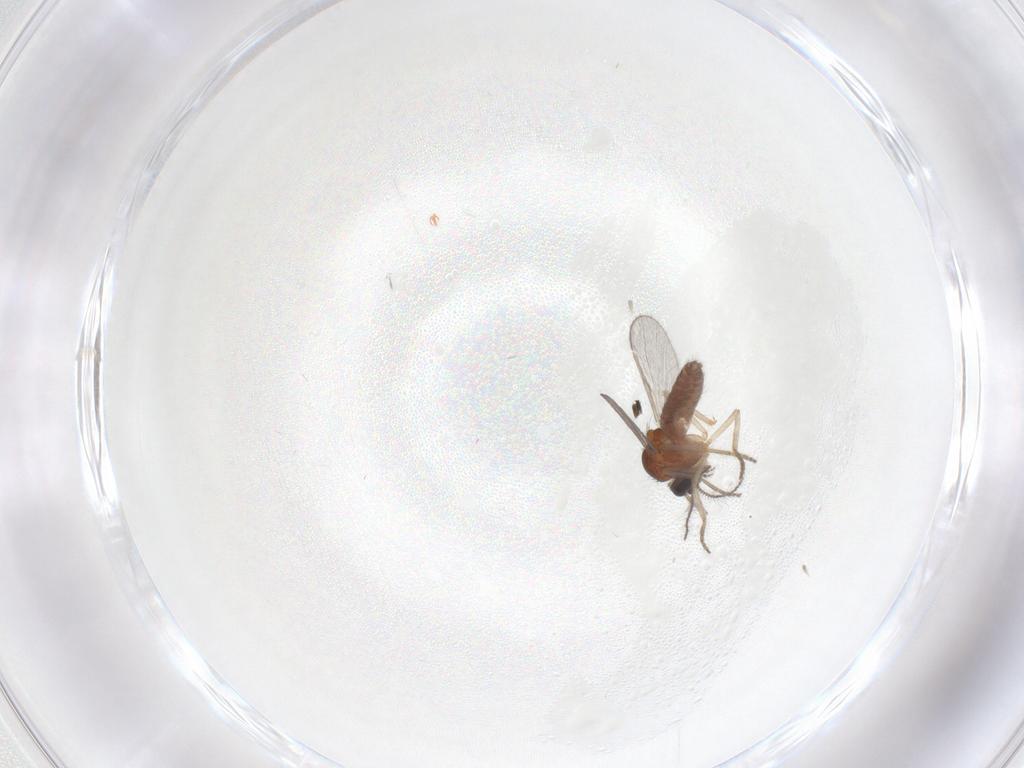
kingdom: Animalia
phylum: Arthropoda
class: Insecta
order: Diptera
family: Ceratopogonidae
